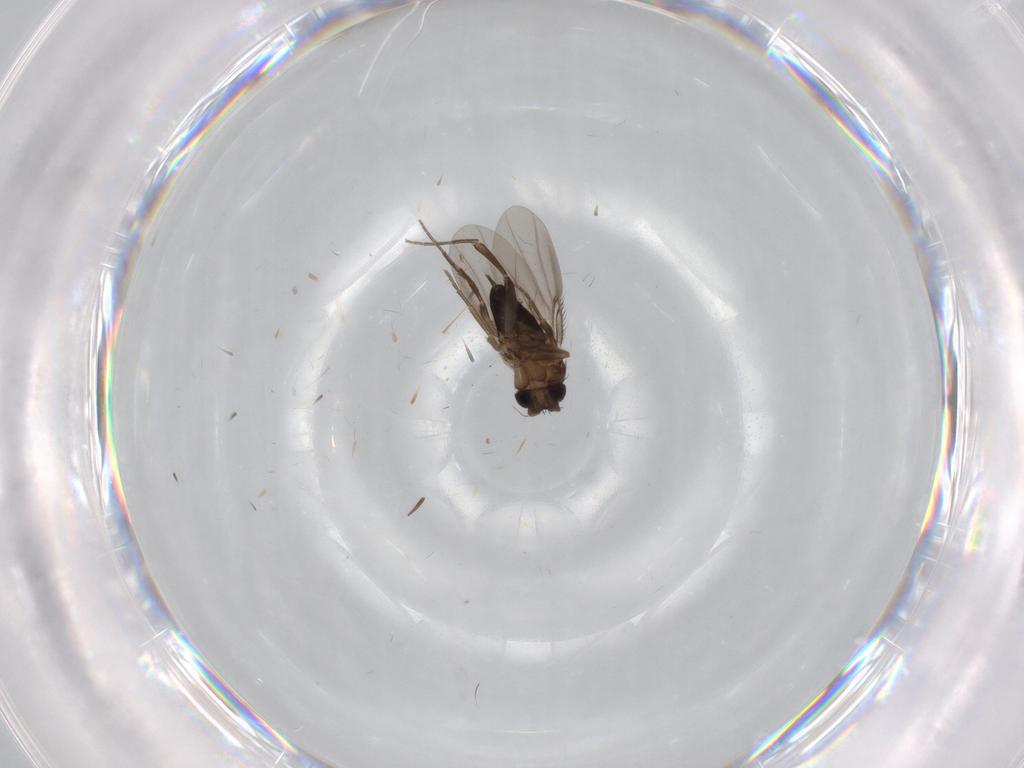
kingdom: Animalia
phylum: Arthropoda
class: Insecta
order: Diptera
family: Phoridae
